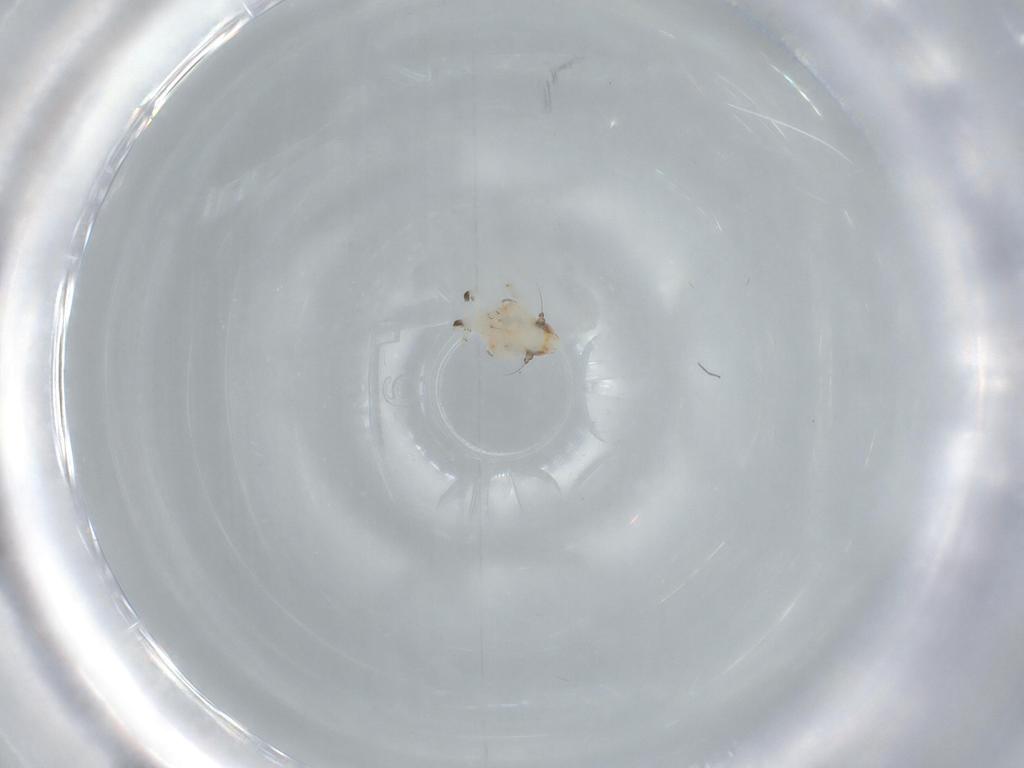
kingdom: Animalia
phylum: Arthropoda
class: Insecta
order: Hemiptera
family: Nogodinidae
